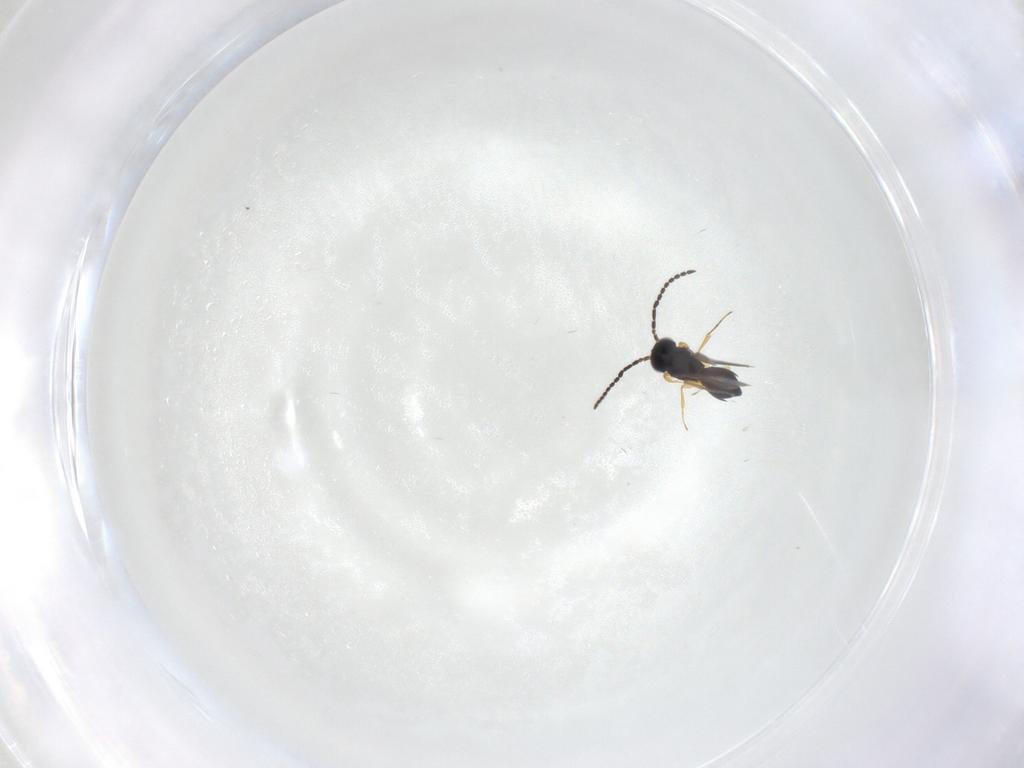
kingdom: Animalia
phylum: Arthropoda
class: Insecta
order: Hymenoptera
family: Scelionidae
